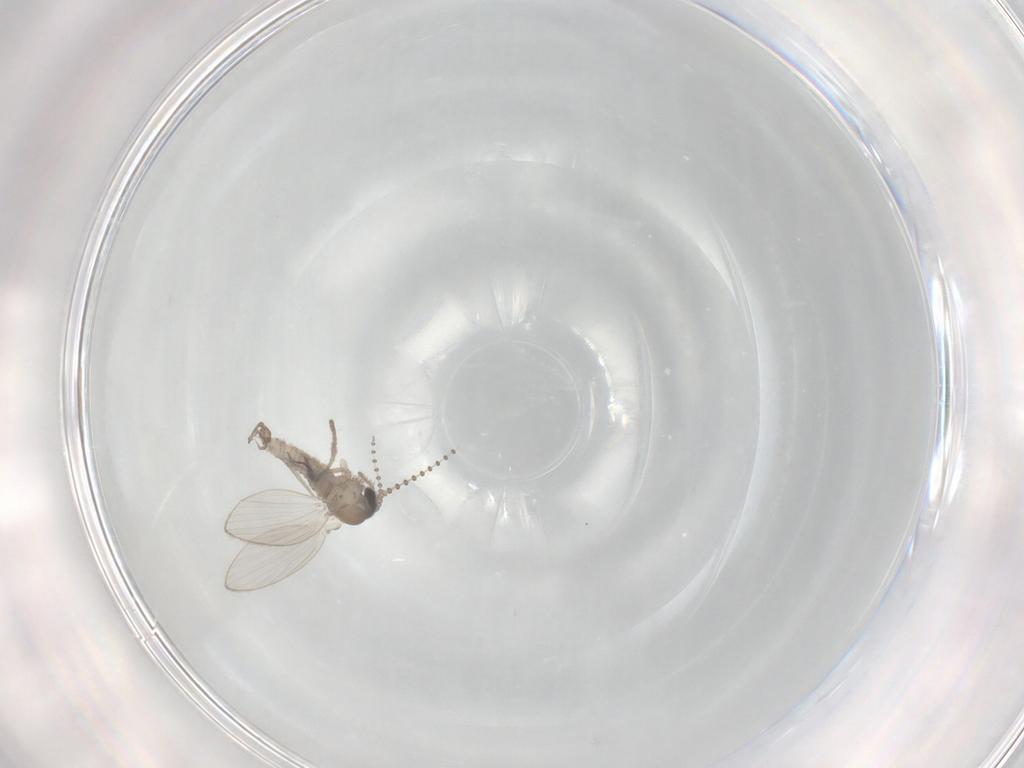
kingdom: Animalia
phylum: Arthropoda
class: Insecta
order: Diptera
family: Psychodidae
